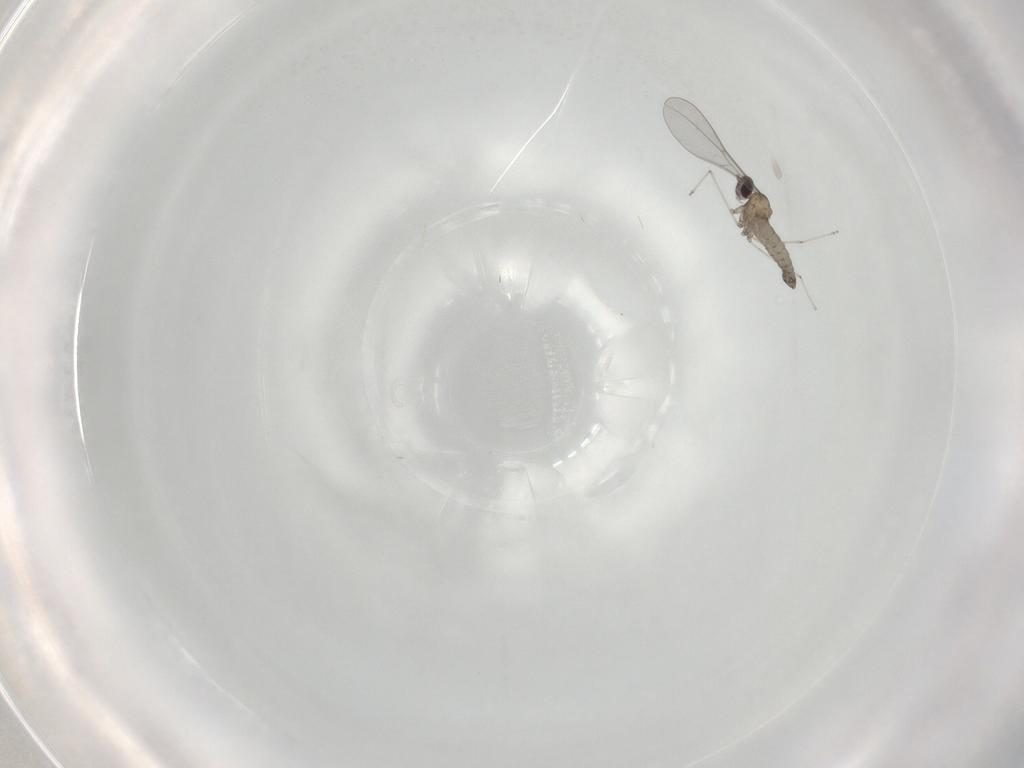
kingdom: Animalia
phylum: Arthropoda
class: Insecta
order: Diptera
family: Cecidomyiidae
